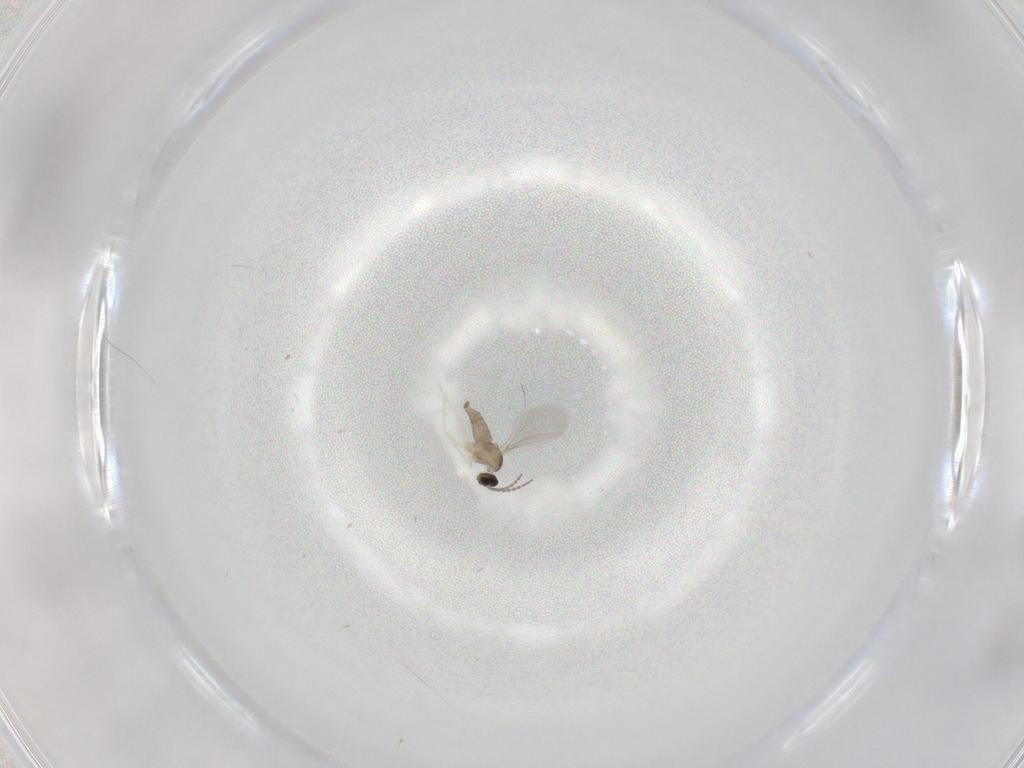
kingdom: Animalia
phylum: Arthropoda
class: Insecta
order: Diptera
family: Cecidomyiidae
